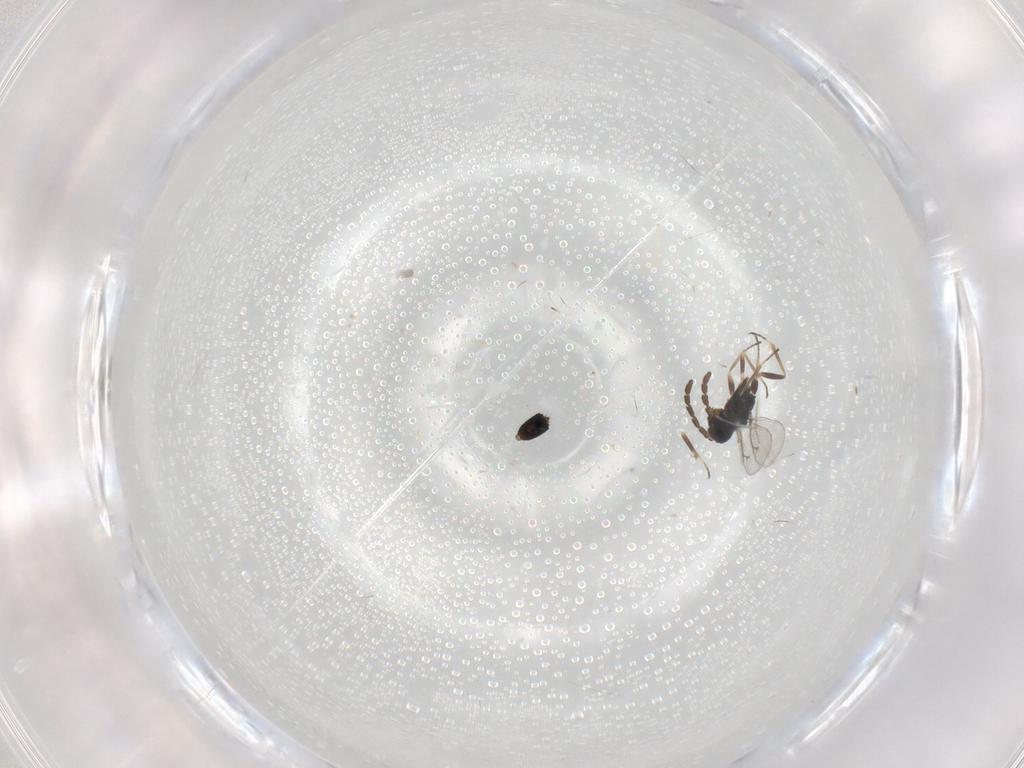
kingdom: Animalia
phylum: Arthropoda
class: Insecta
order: Hymenoptera
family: Eulophidae
